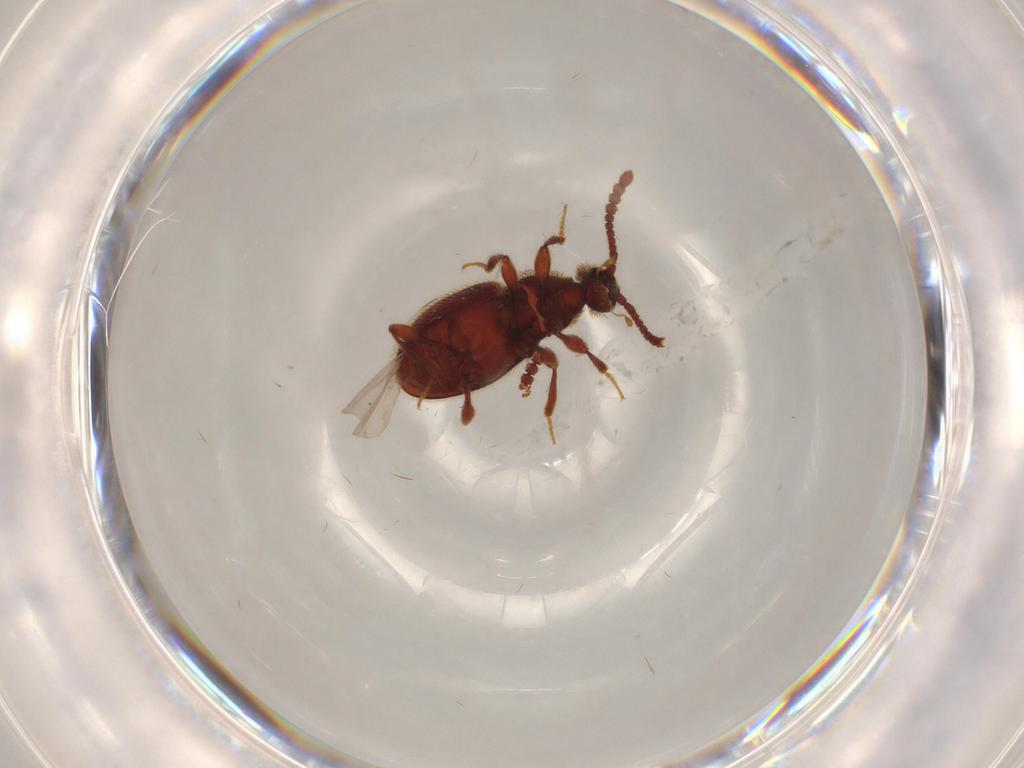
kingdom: Animalia
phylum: Arthropoda
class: Insecta
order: Coleoptera
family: Staphylinidae
